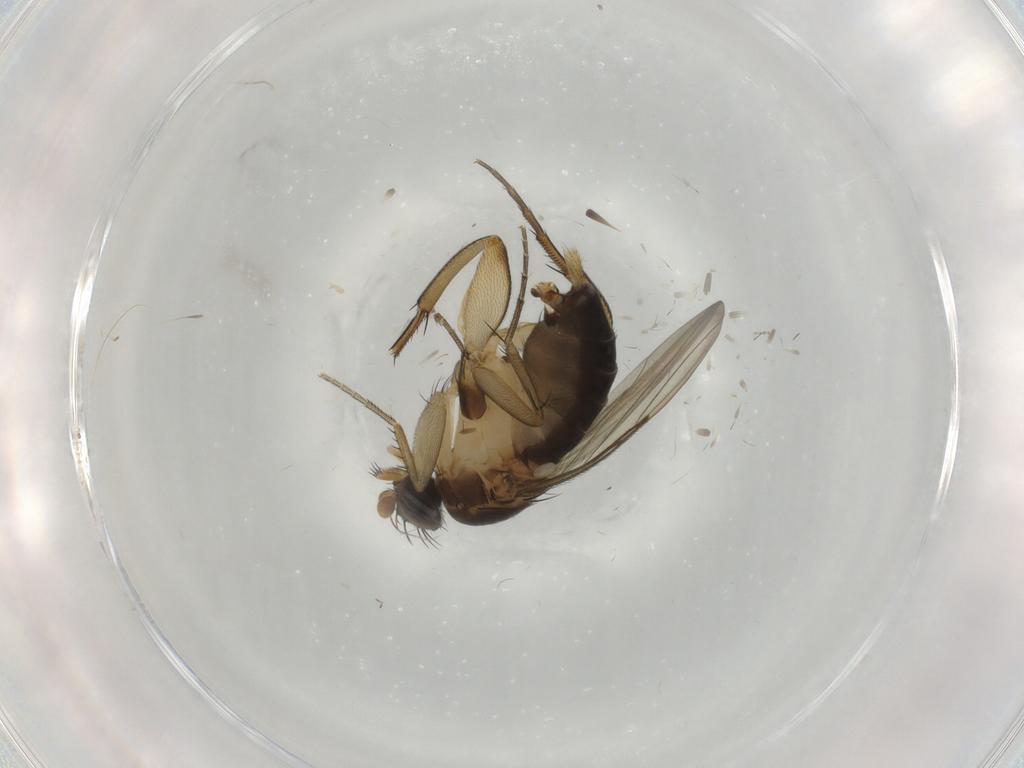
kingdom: Animalia
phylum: Arthropoda
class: Insecta
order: Diptera
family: Phoridae
